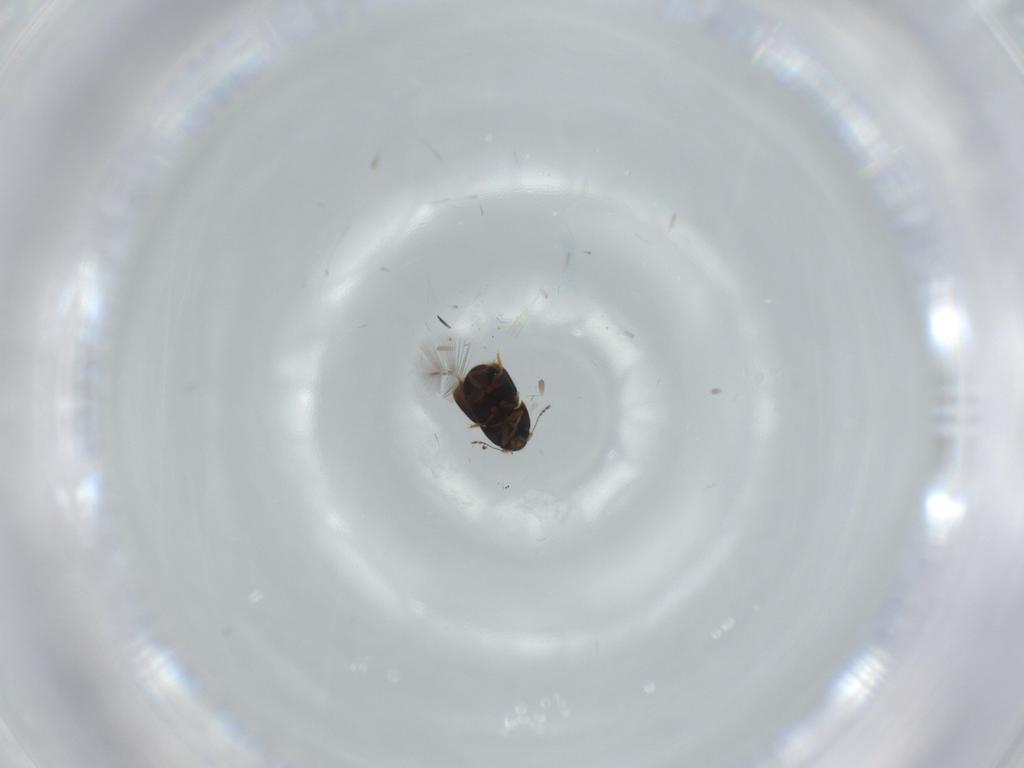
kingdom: Animalia
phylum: Arthropoda
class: Insecta
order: Coleoptera
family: Ptiliidae
